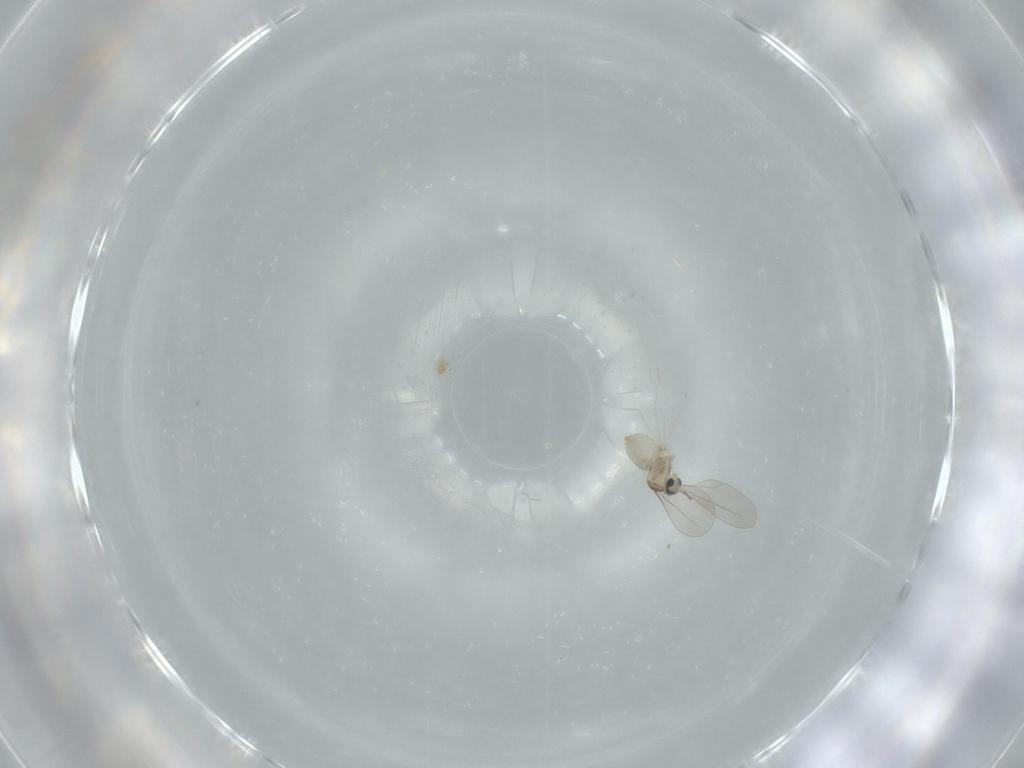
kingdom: Animalia
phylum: Arthropoda
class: Insecta
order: Diptera
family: Cecidomyiidae
